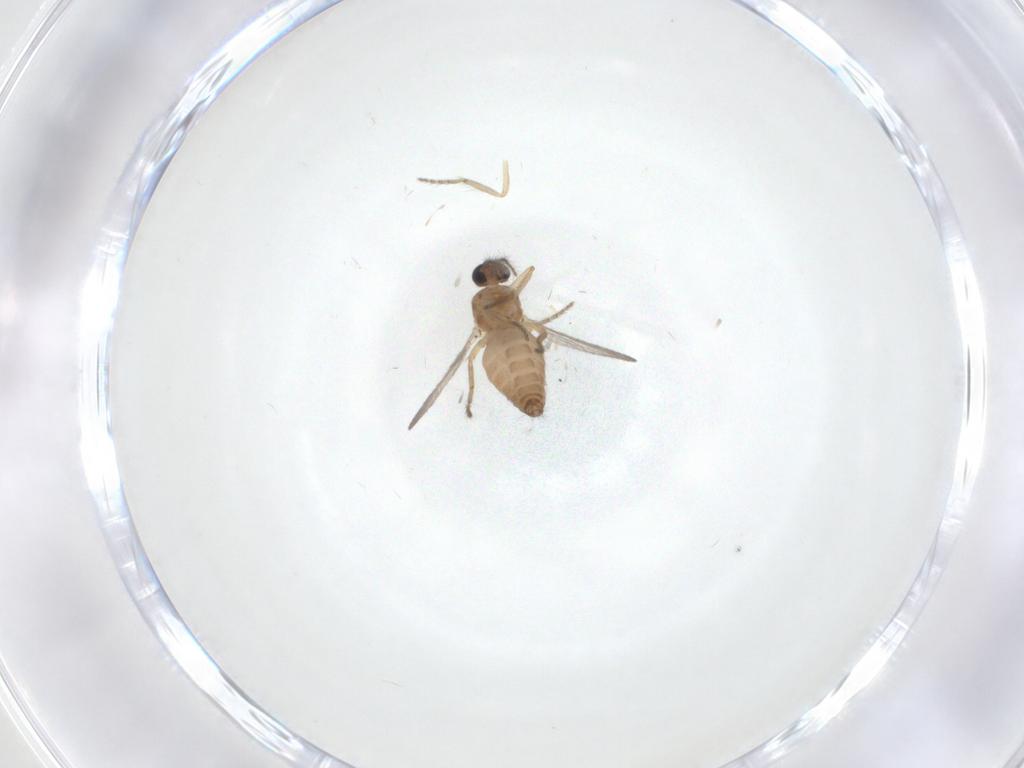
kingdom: Animalia
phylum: Arthropoda
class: Insecta
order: Diptera
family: Ceratopogonidae
